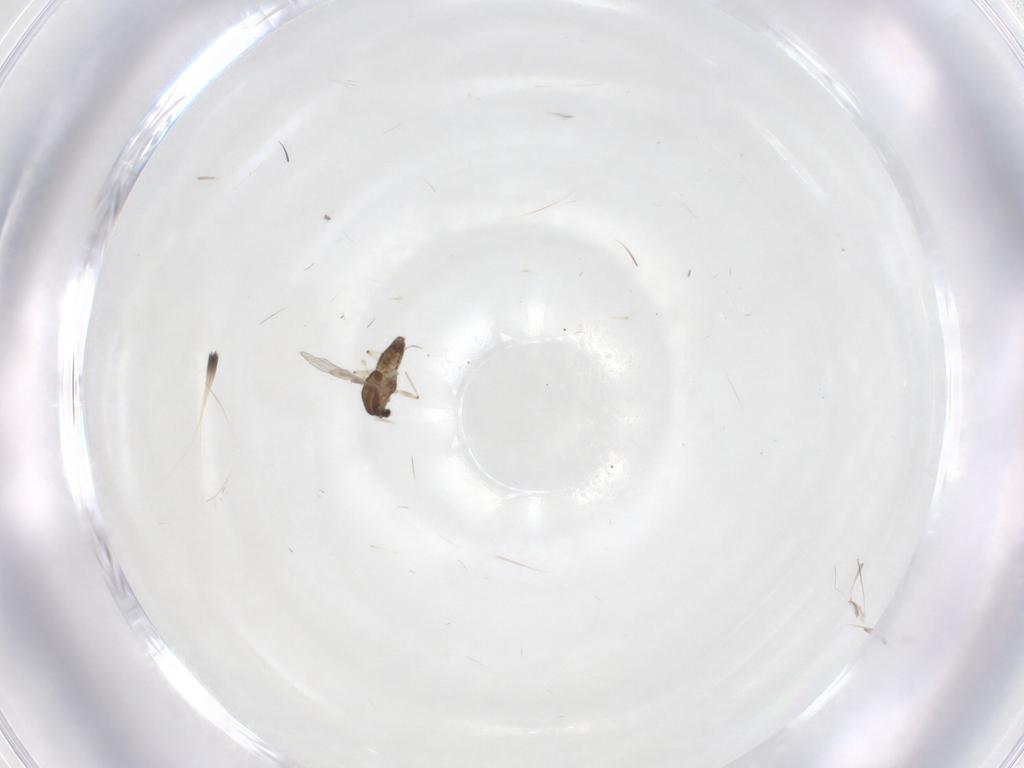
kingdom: Animalia
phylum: Arthropoda
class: Insecta
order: Diptera
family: Chironomidae
